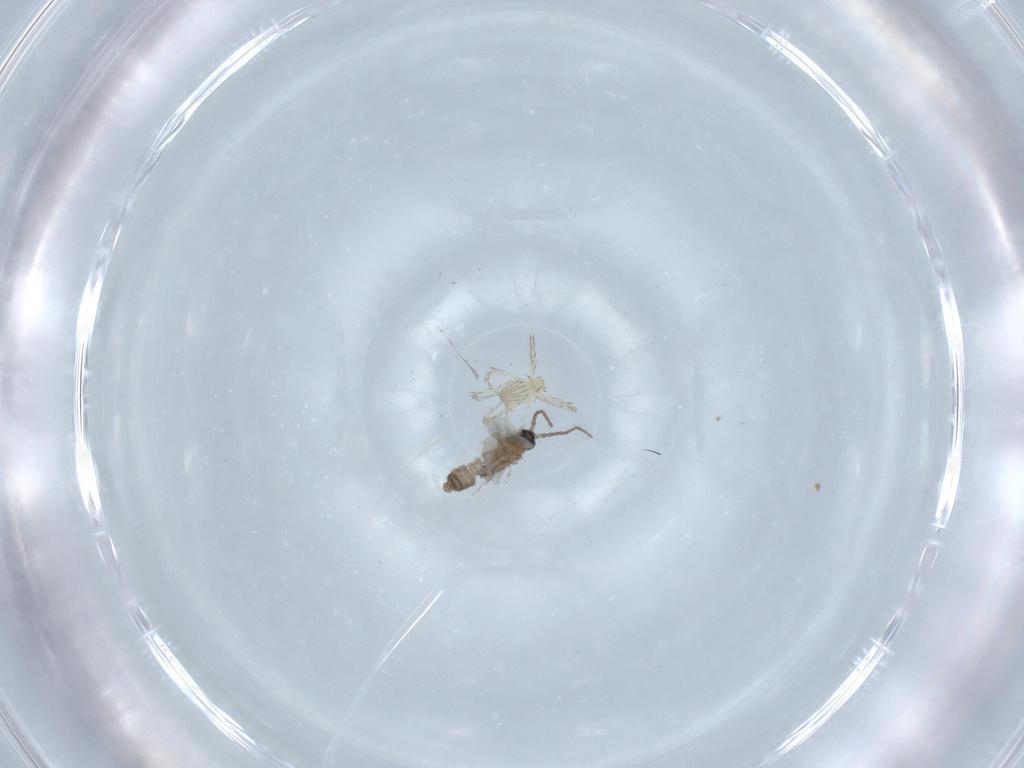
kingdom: Animalia
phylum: Arthropoda
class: Insecta
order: Diptera
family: Cecidomyiidae
